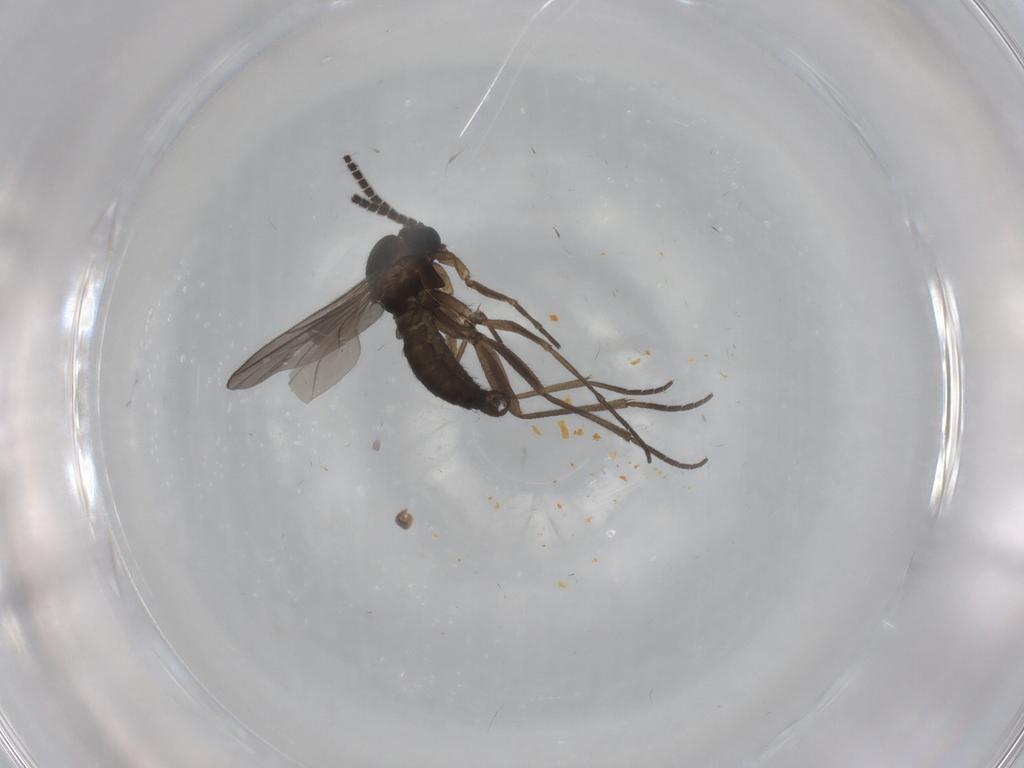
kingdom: Animalia
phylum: Arthropoda
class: Insecta
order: Diptera
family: Sciaridae
